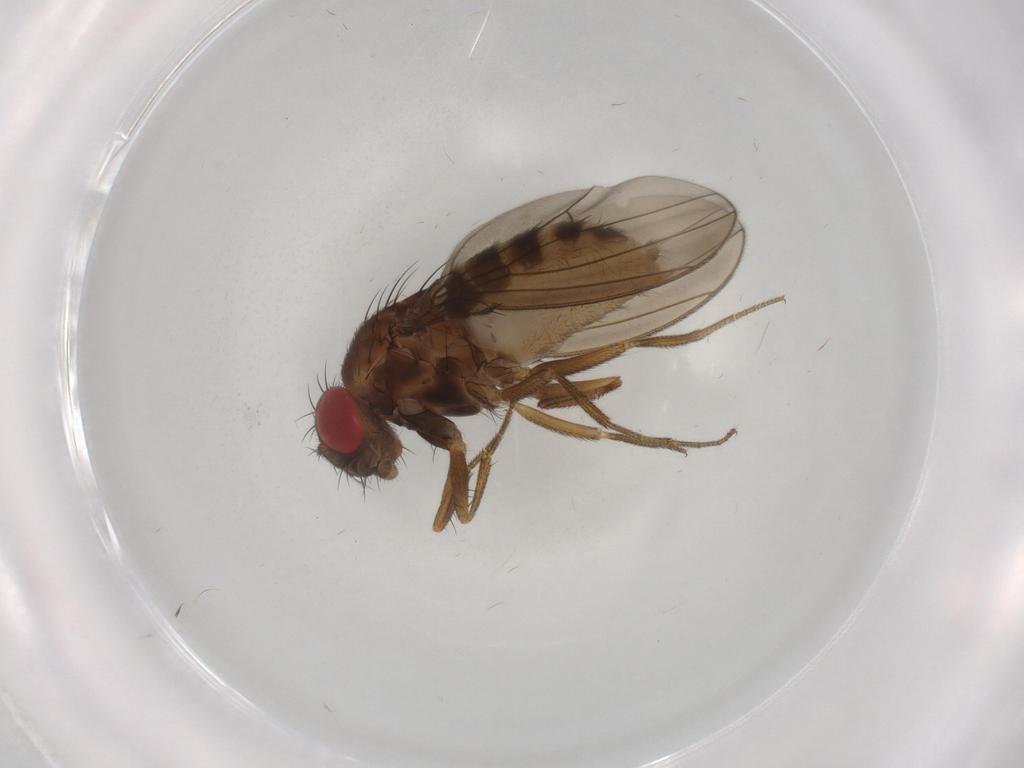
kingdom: Animalia
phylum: Arthropoda
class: Insecta
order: Diptera
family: Drosophilidae
